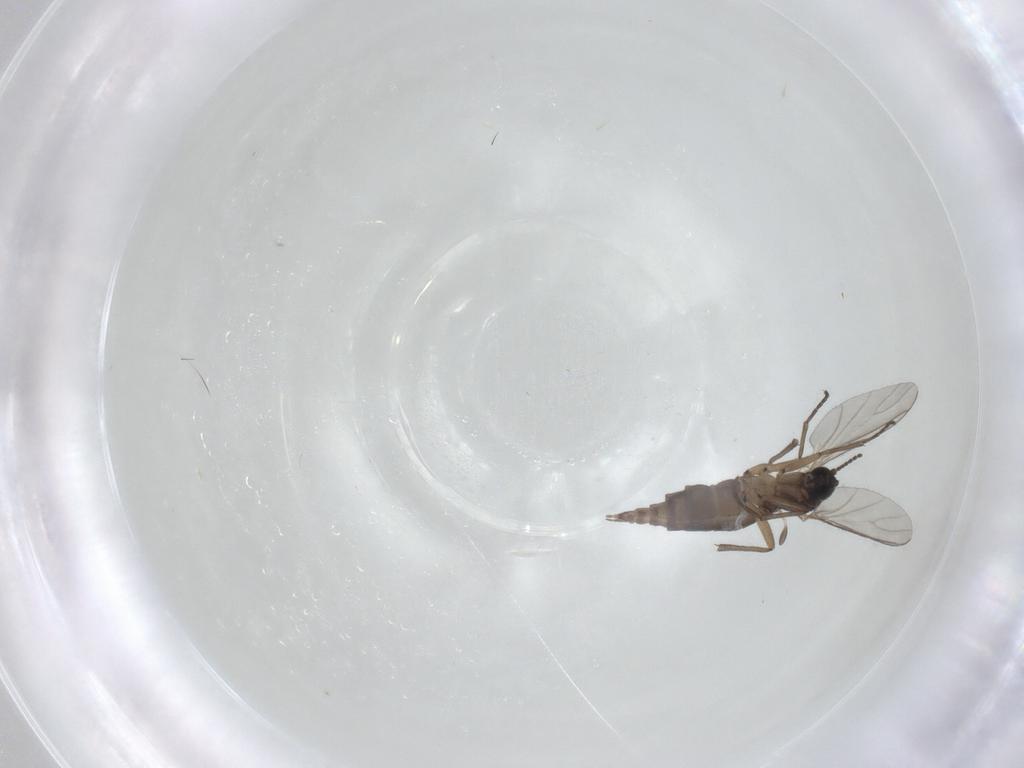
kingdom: Animalia
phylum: Arthropoda
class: Insecta
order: Diptera
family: Sciaridae
